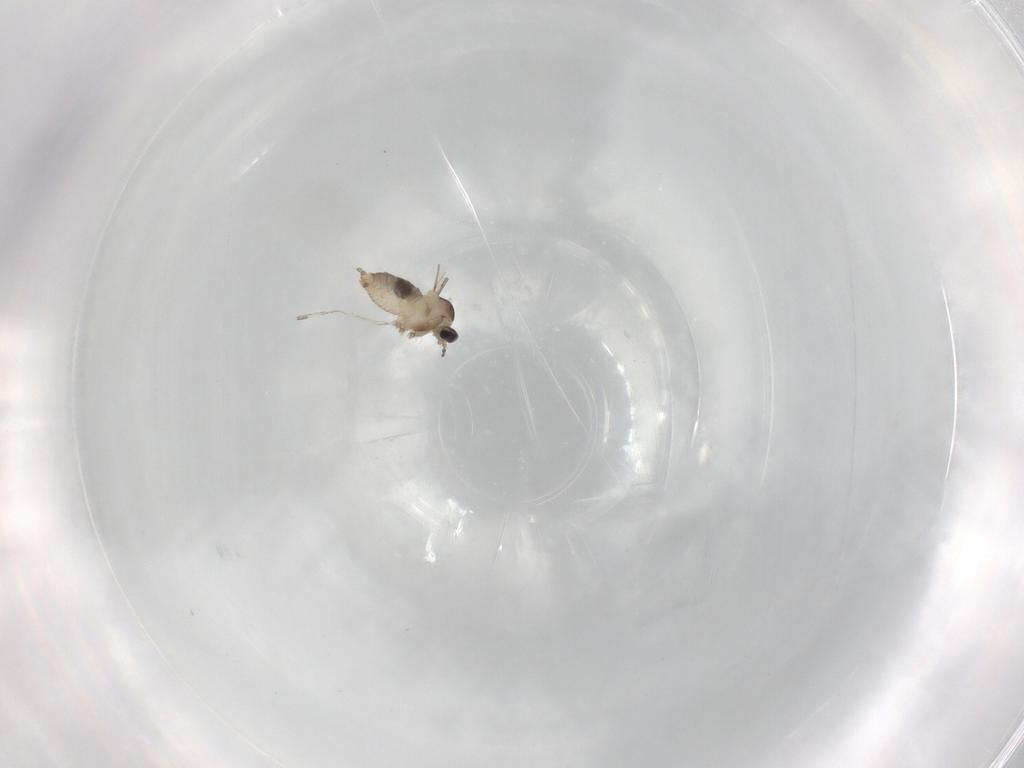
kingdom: Animalia
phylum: Arthropoda
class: Insecta
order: Diptera
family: Cecidomyiidae
